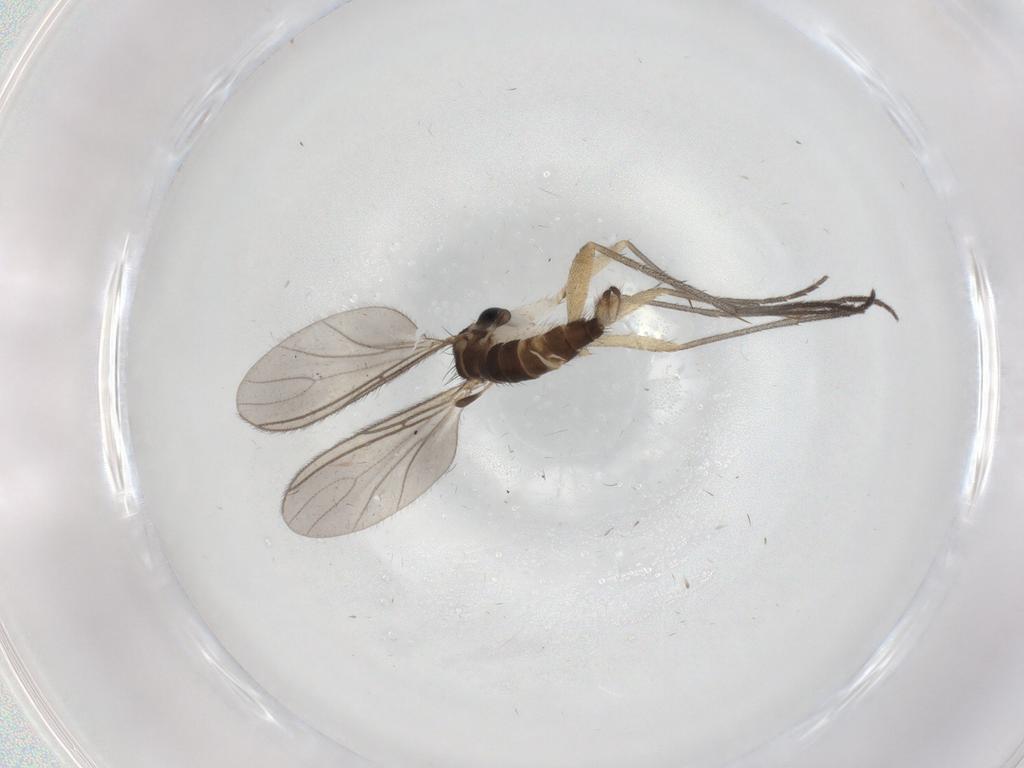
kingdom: Animalia
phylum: Arthropoda
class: Insecta
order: Diptera
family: Sciaridae
